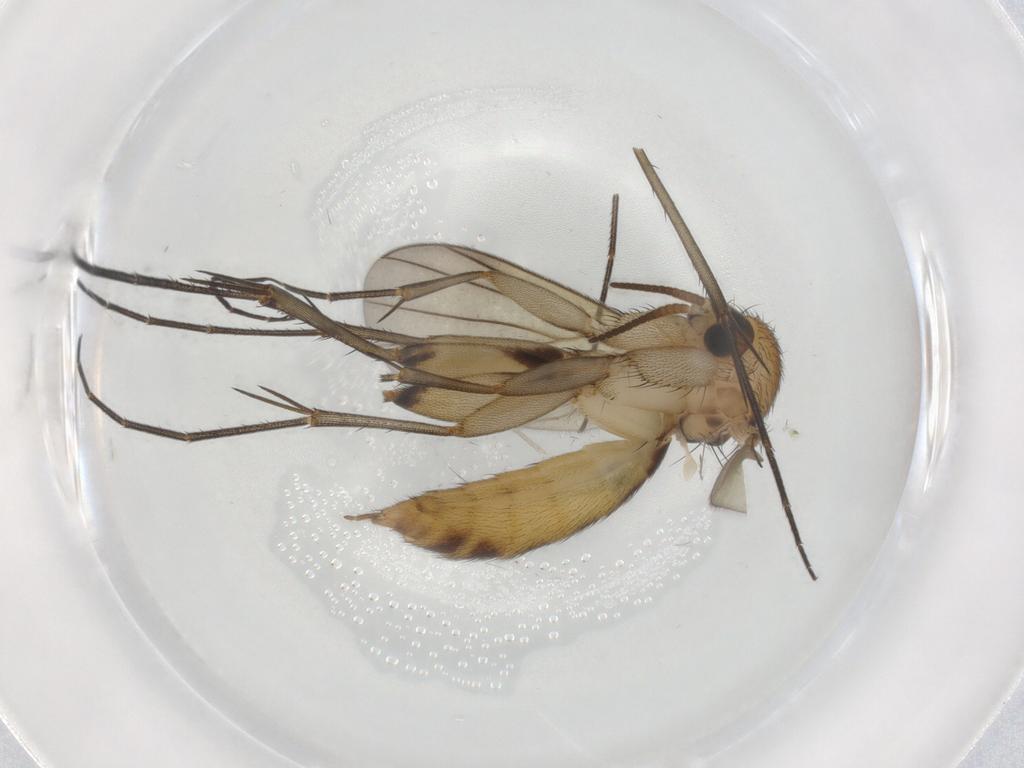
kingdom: Animalia
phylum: Arthropoda
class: Insecta
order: Diptera
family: Mycetophilidae
